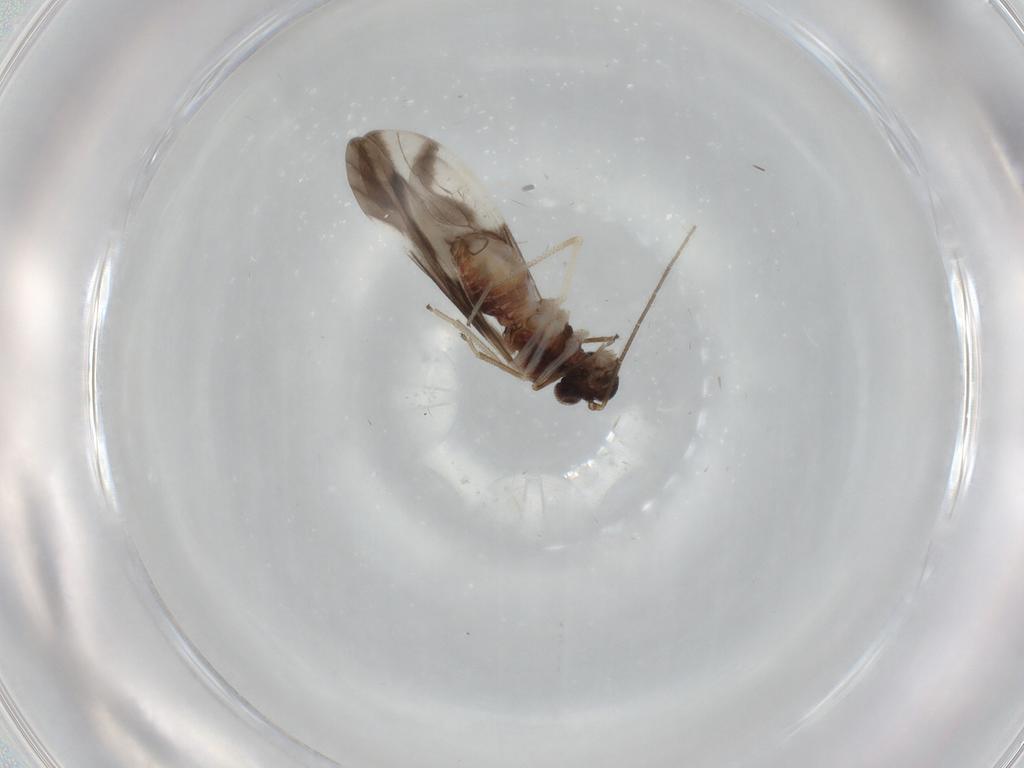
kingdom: Animalia
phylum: Arthropoda
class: Insecta
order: Psocodea
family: Caeciliusidae
